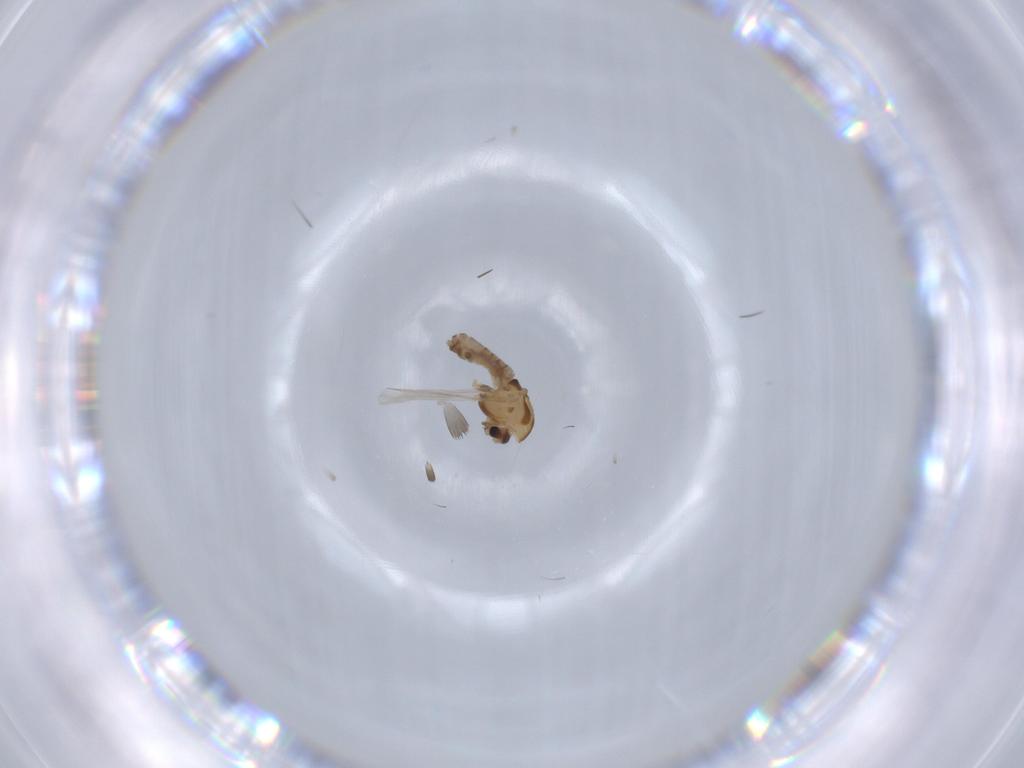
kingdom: Animalia
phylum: Arthropoda
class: Insecta
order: Diptera
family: Chironomidae
